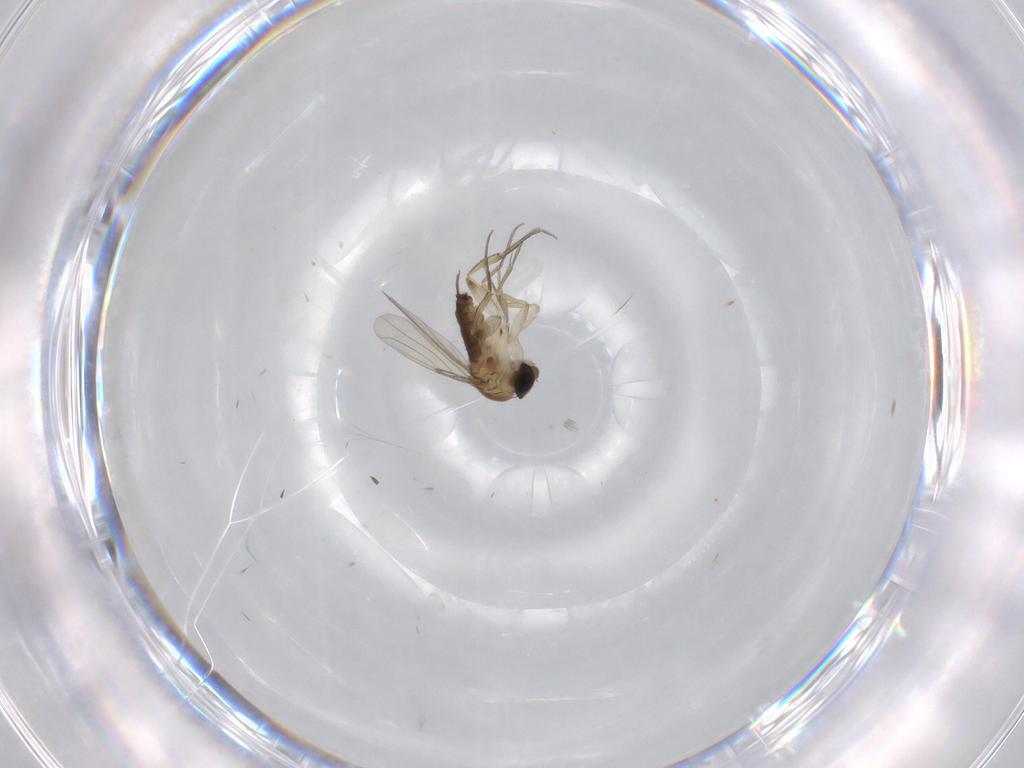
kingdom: Animalia
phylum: Arthropoda
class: Insecta
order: Diptera
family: Phoridae
